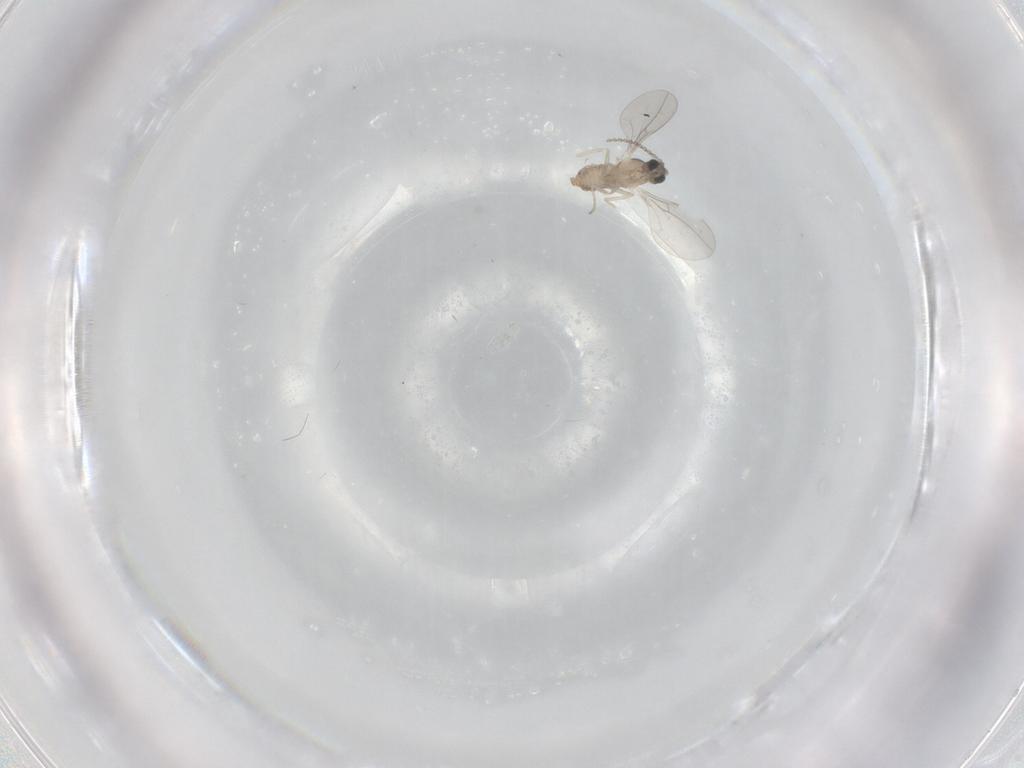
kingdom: Animalia
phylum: Arthropoda
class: Insecta
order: Diptera
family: Cecidomyiidae
